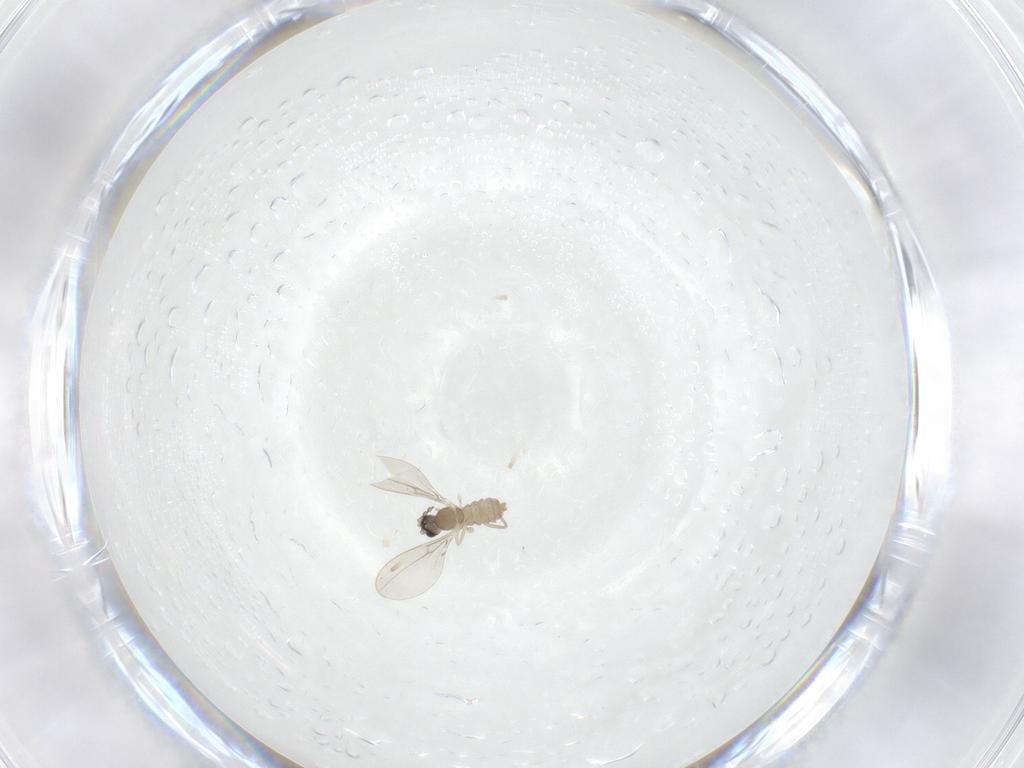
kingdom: Animalia
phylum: Arthropoda
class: Insecta
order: Diptera
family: Cecidomyiidae
